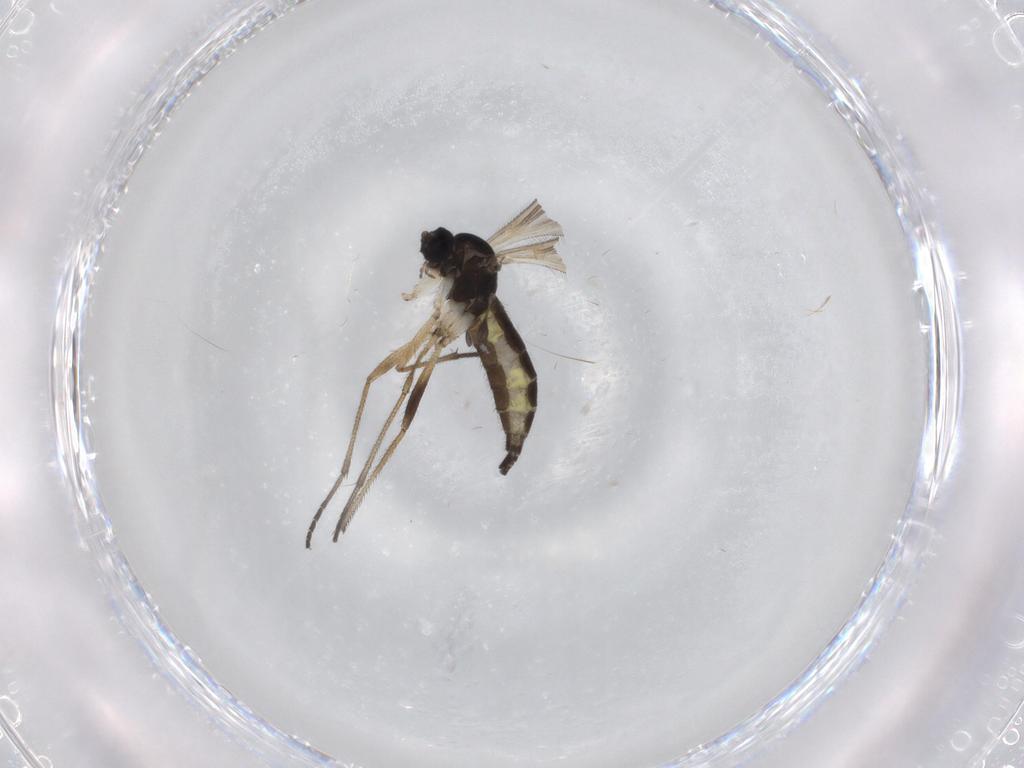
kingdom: Animalia
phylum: Arthropoda
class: Insecta
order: Diptera
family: Sciaridae
